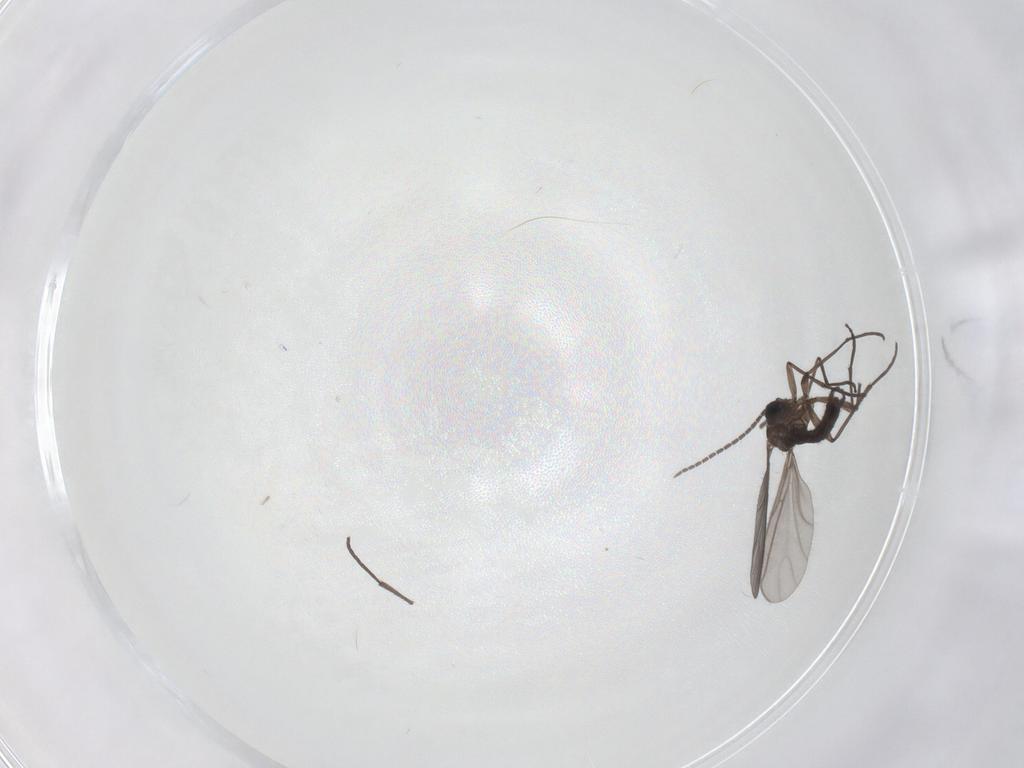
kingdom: Animalia
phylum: Arthropoda
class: Insecta
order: Diptera
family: Sciaridae
